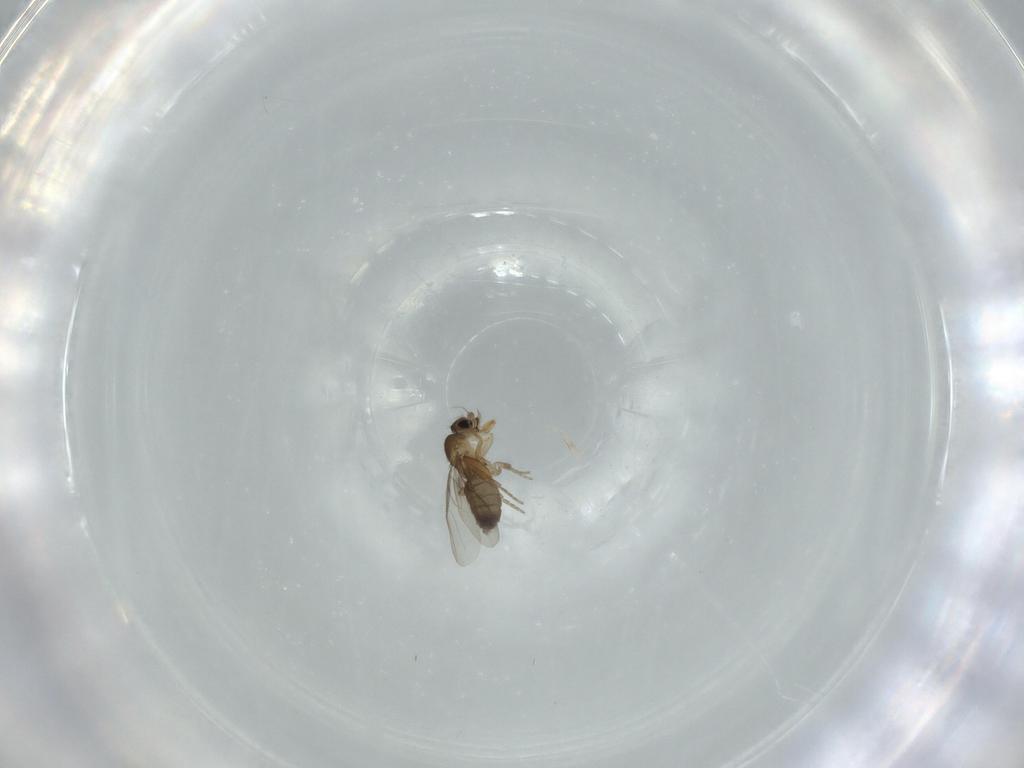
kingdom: Animalia
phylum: Arthropoda
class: Insecta
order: Diptera
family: Phoridae
